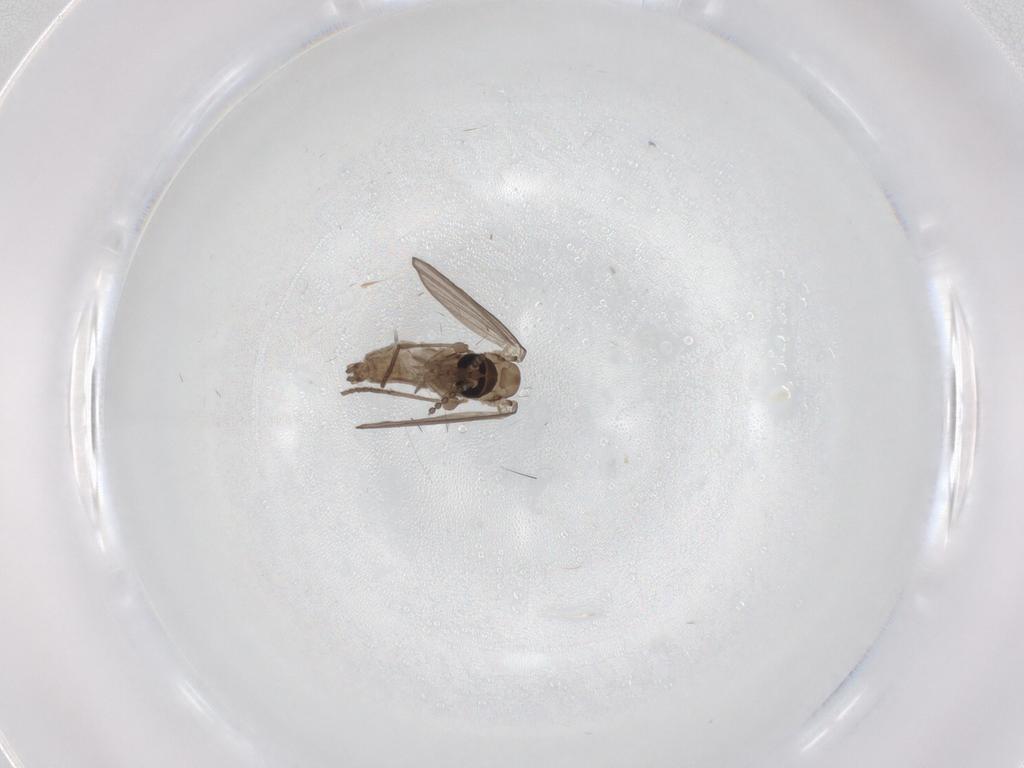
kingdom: Animalia
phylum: Arthropoda
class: Insecta
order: Diptera
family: Psychodidae
